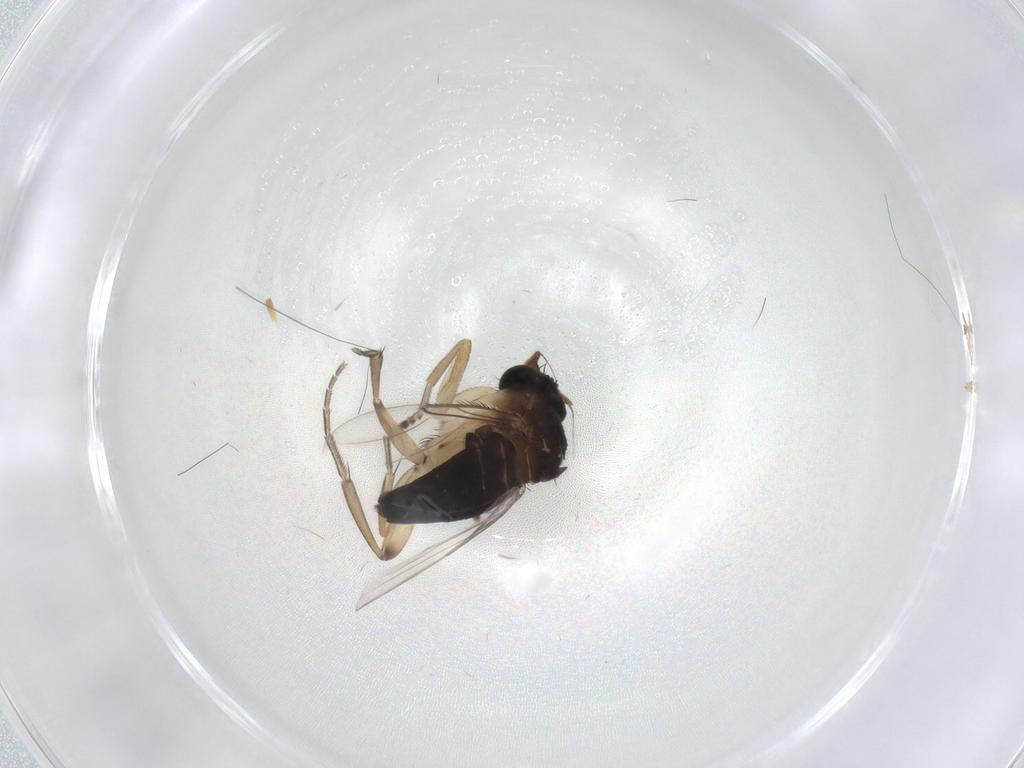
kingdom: Animalia
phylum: Arthropoda
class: Insecta
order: Diptera
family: Phoridae
